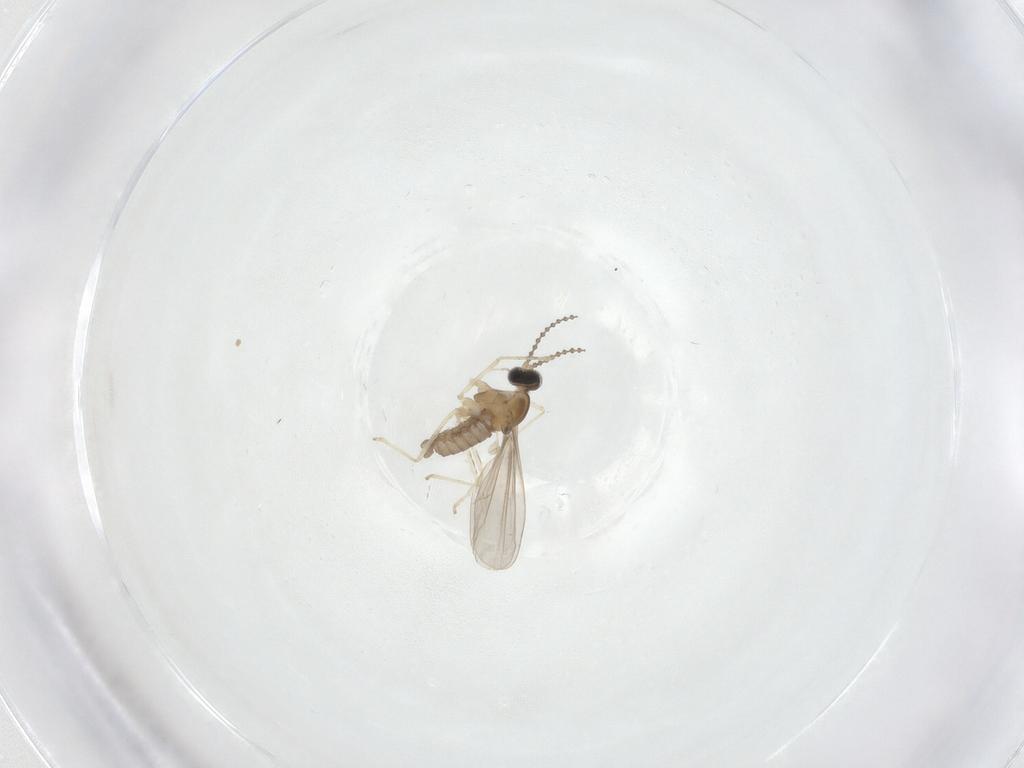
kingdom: Animalia
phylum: Arthropoda
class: Insecta
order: Diptera
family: Cecidomyiidae
